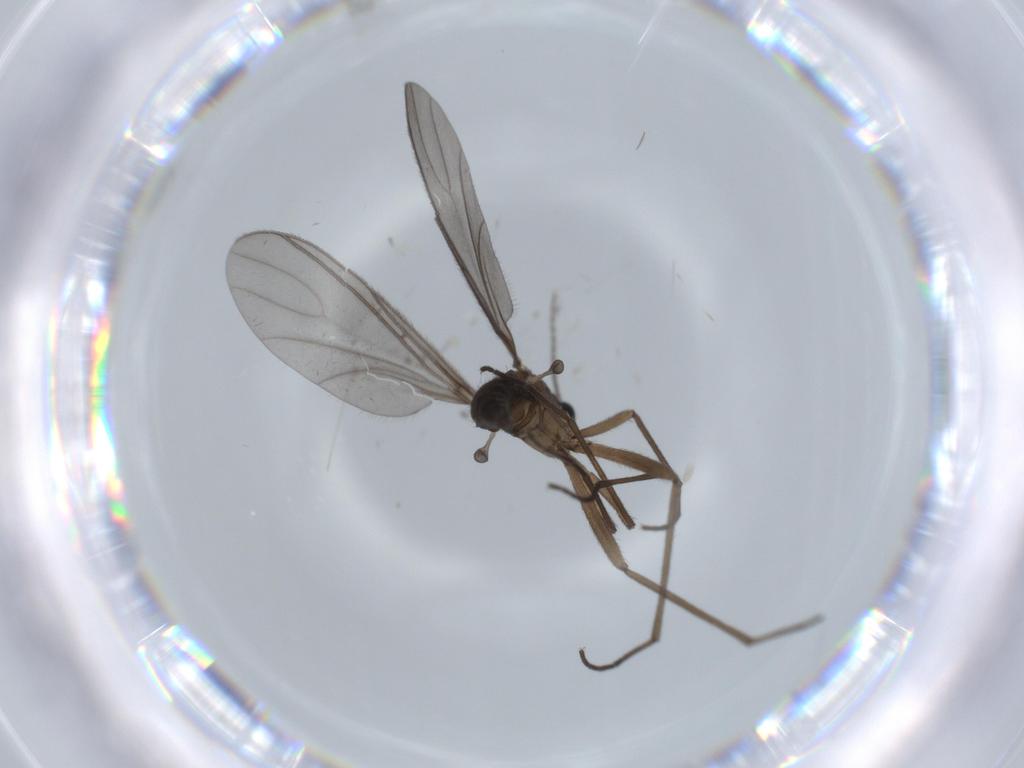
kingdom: Animalia
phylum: Arthropoda
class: Insecta
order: Diptera
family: Sciaridae
